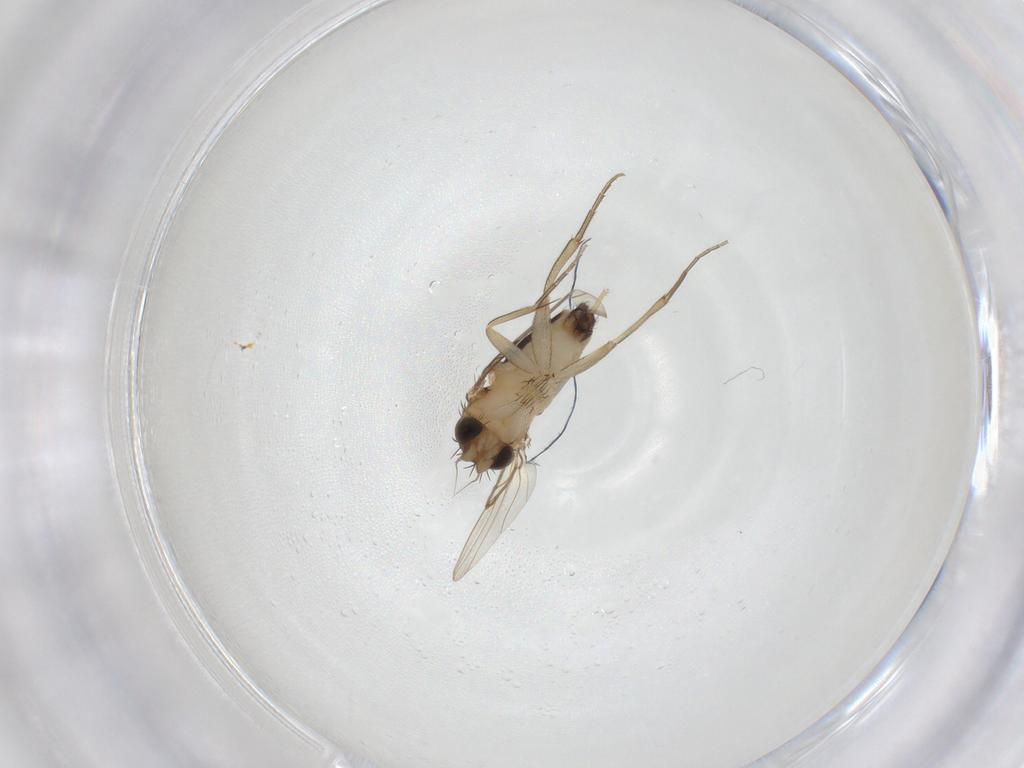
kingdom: Animalia
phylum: Arthropoda
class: Insecta
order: Diptera
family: Phoridae
